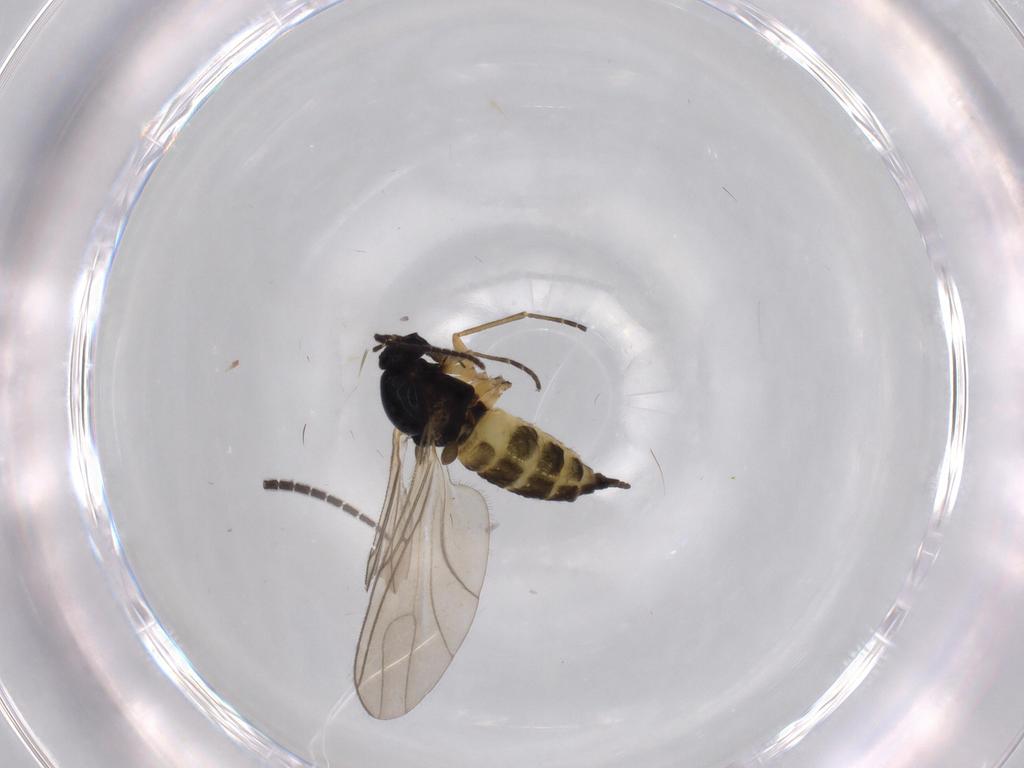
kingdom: Animalia
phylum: Arthropoda
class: Insecta
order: Diptera
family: Sciaridae
